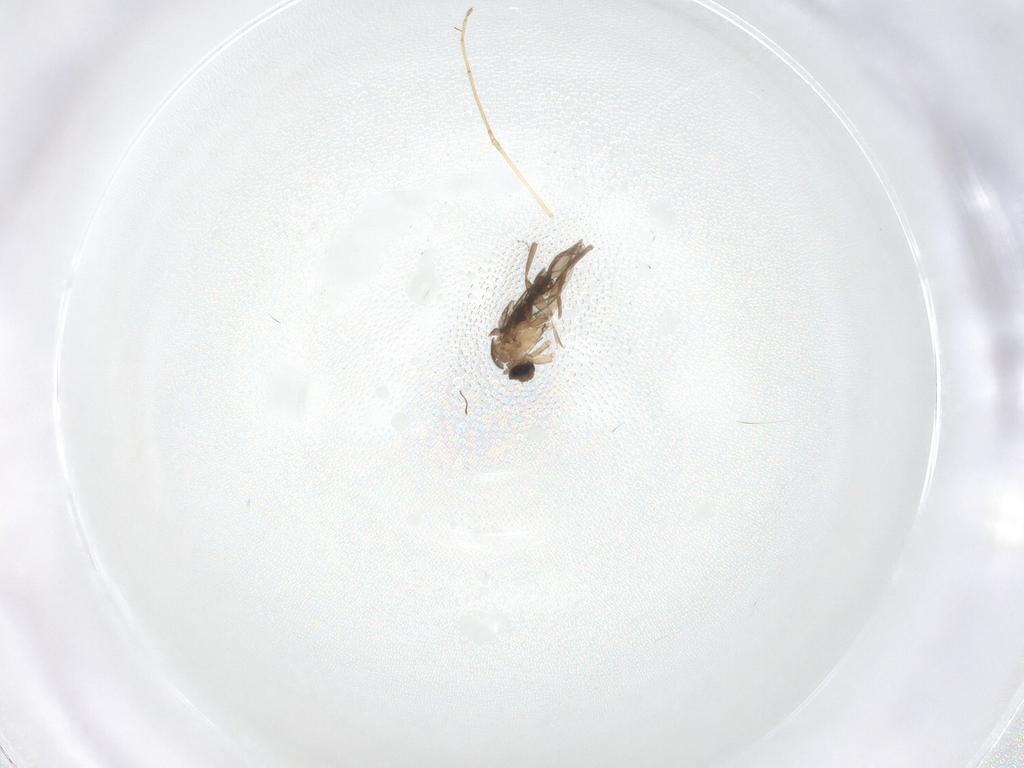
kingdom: Animalia
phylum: Arthropoda
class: Insecta
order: Diptera
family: Phoridae
